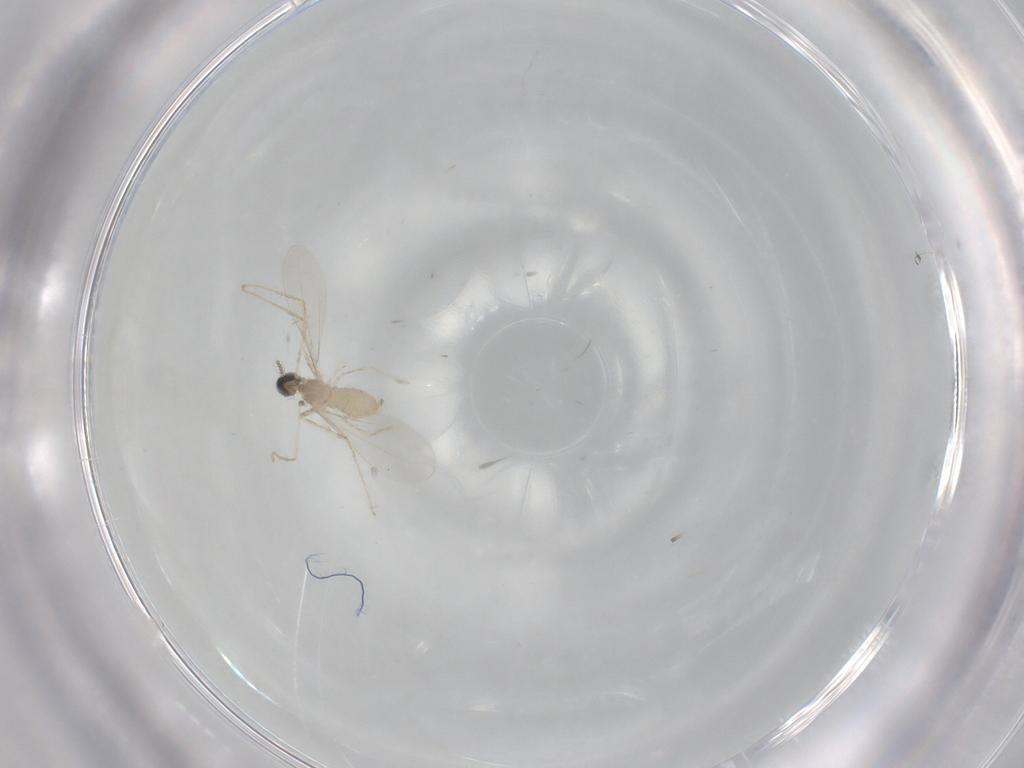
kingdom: Animalia
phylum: Arthropoda
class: Insecta
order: Diptera
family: Cecidomyiidae
